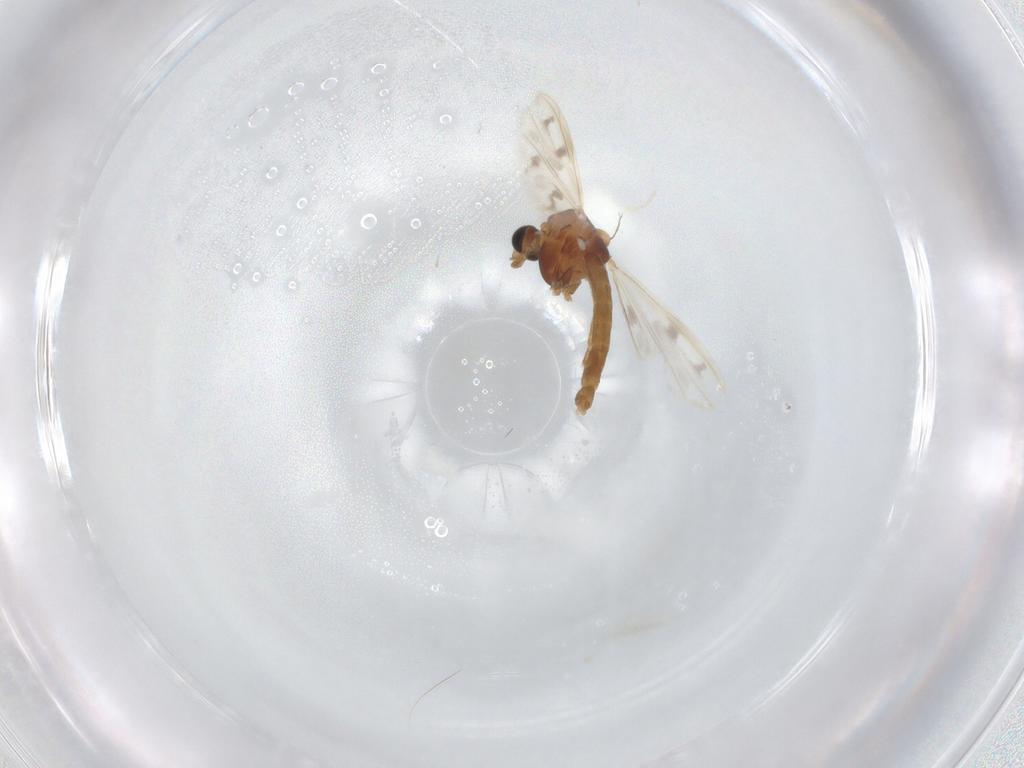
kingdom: Animalia
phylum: Arthropoda
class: Insecta
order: Diptera
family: Chironomidae
